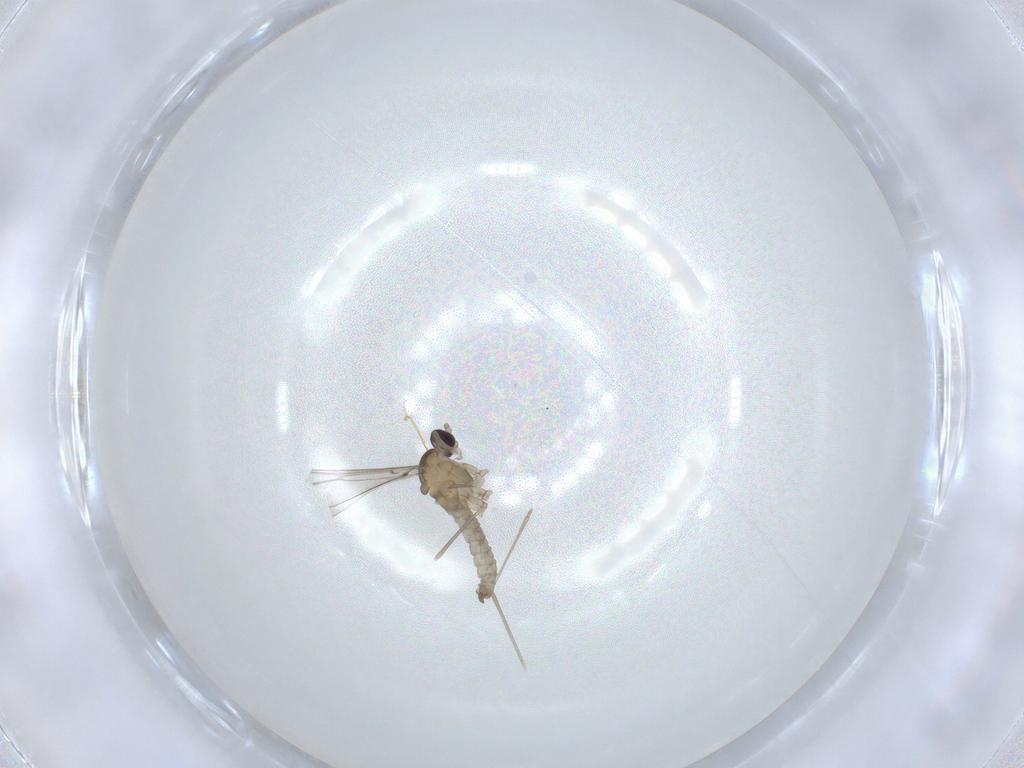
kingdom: Animalia
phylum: Arthropoda
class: Insecta
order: Diptera
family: Cecidomyiidae
